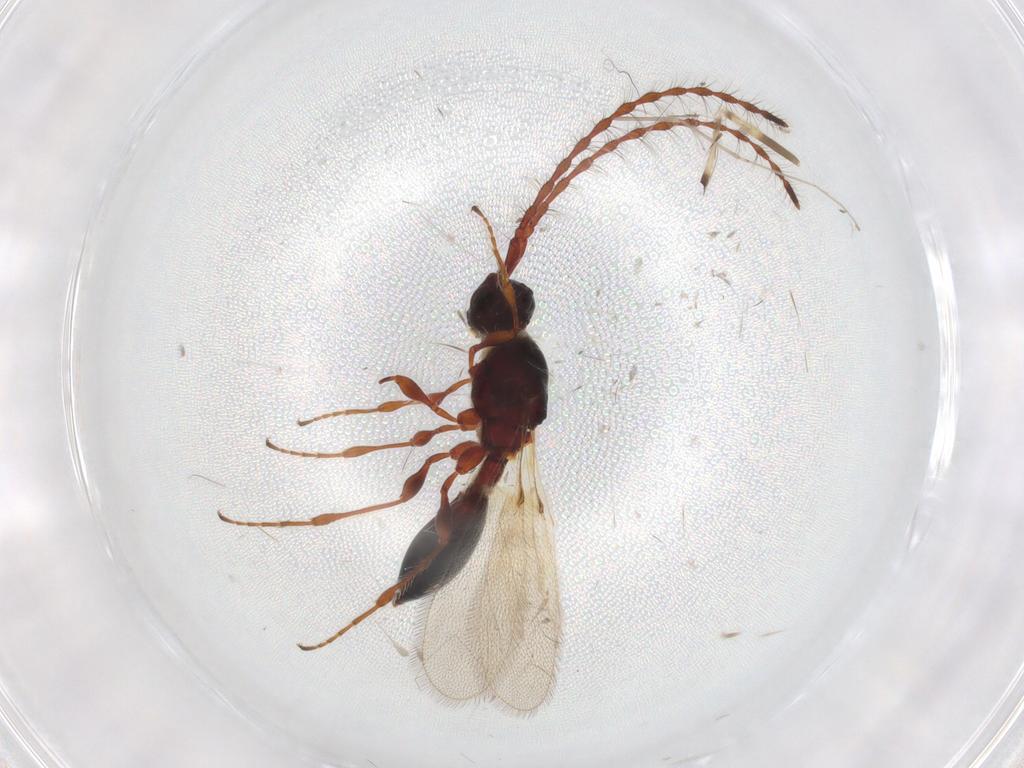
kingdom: Animalia
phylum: Arthropoda
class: Insecta
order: Hymenoptera
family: Diapriidae
